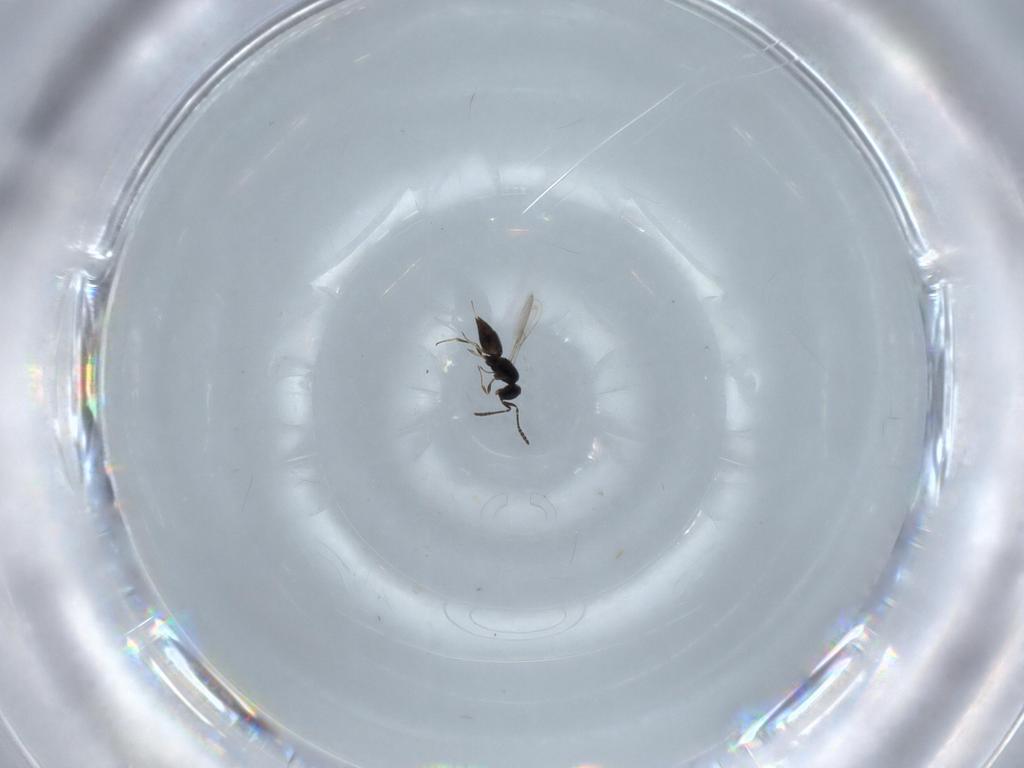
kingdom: Animalia
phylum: Arthropoda
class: Insecta
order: Hymenoptera
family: Scelionidae
